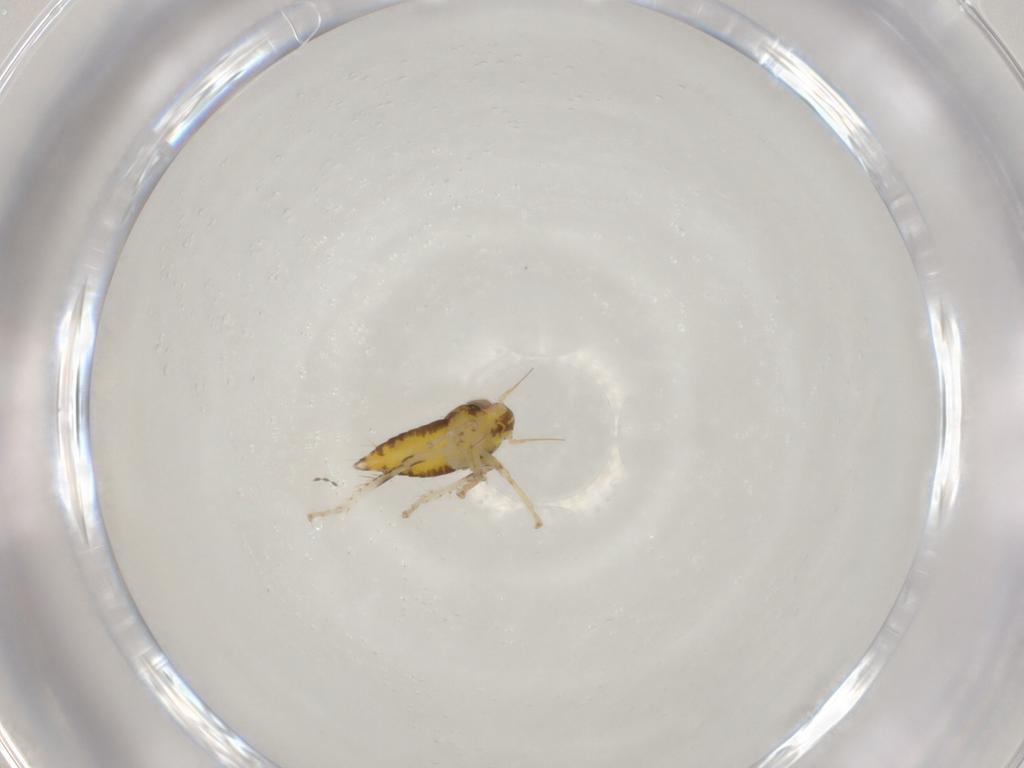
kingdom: Animalia
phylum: Arthropoda
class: Insecta
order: Hemiptera
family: Cicadellidae
